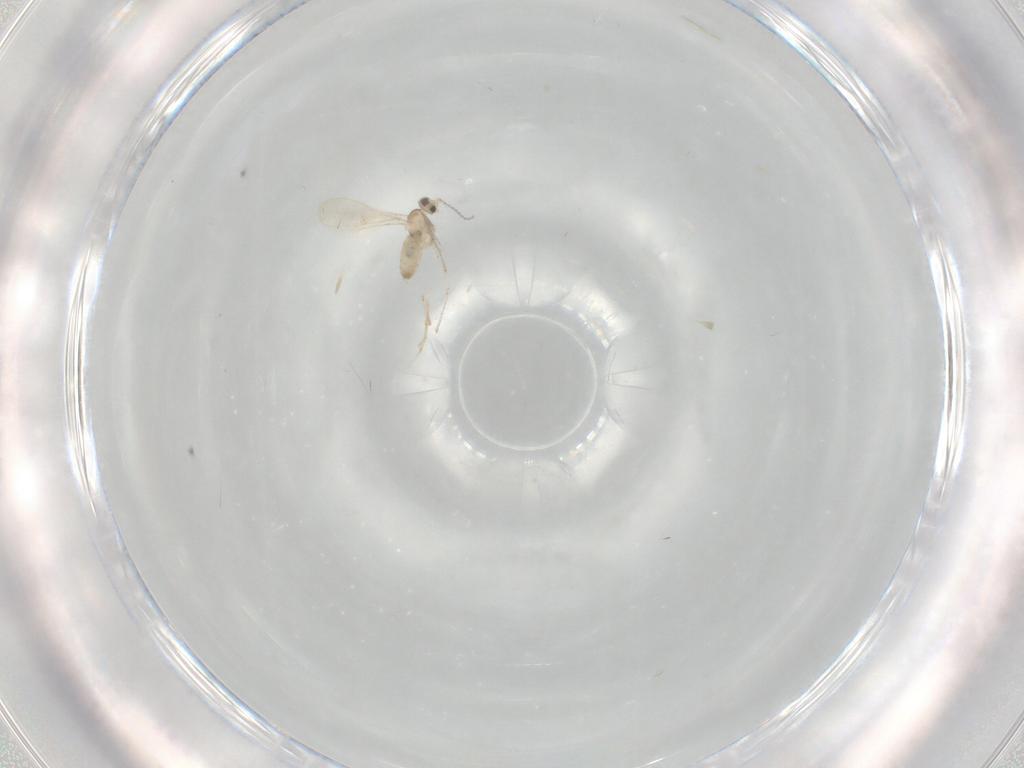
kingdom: Animalia
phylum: Arthropoda
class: Insecta
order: Diptera
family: Cecidomyiidae
